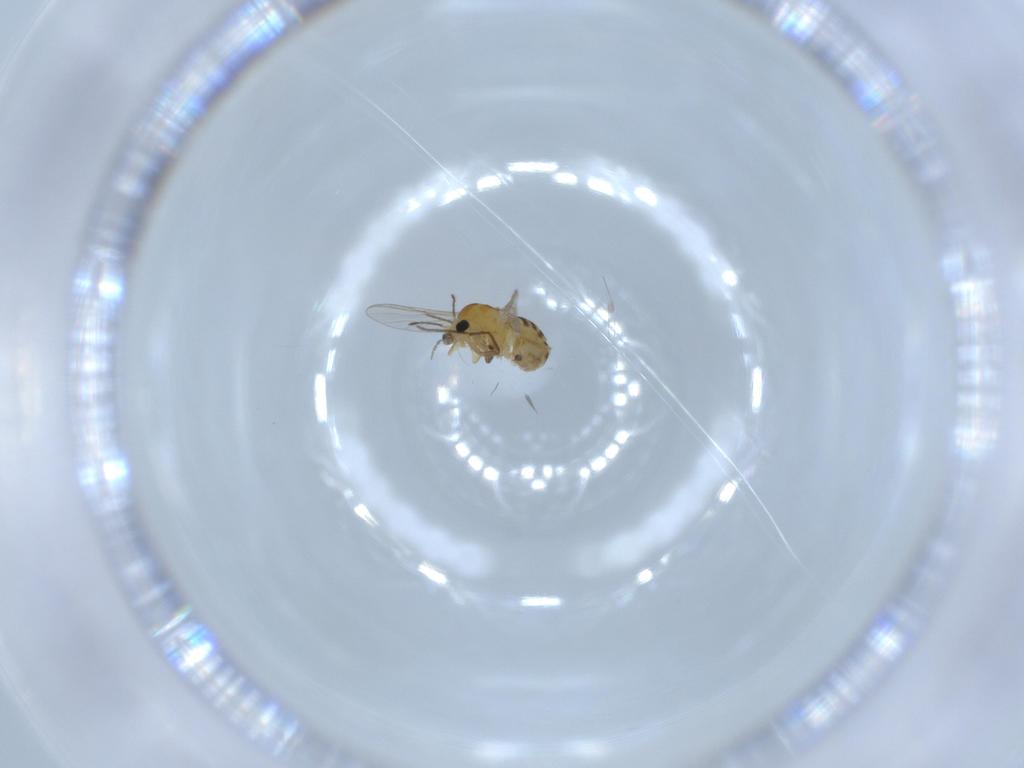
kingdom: Animalia
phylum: Arthropoda
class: Insecta
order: Diptera
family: Chironomidae
